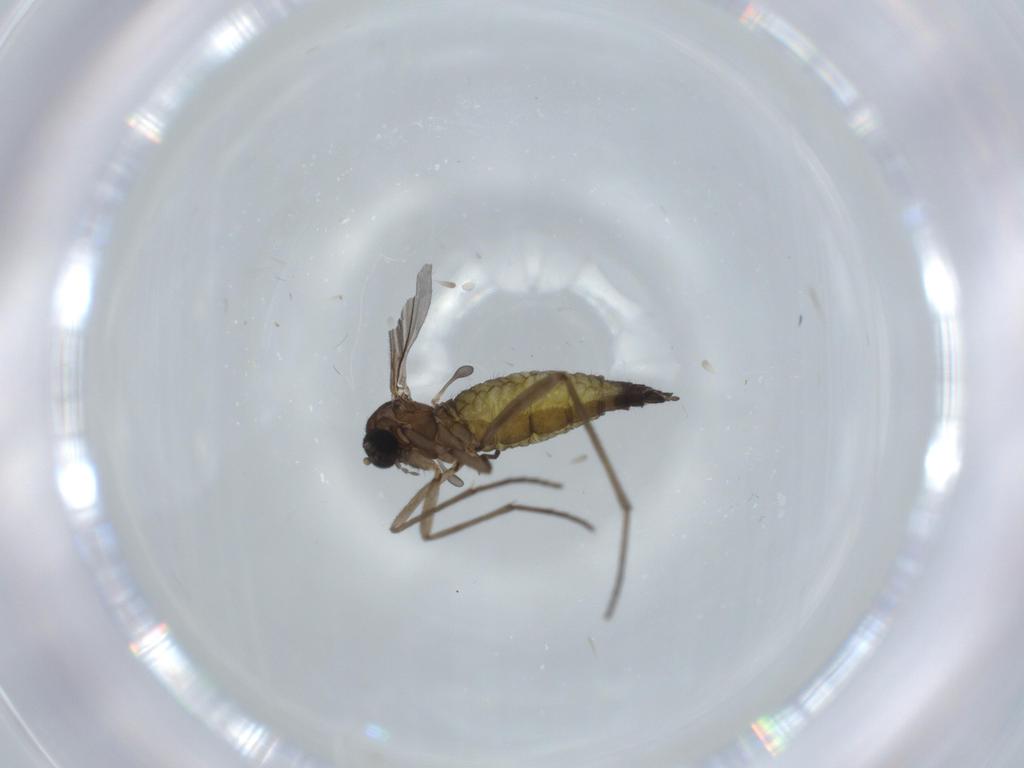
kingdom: Animalia
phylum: Arthropoda
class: Insecta
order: Diptera
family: Sciaridae
